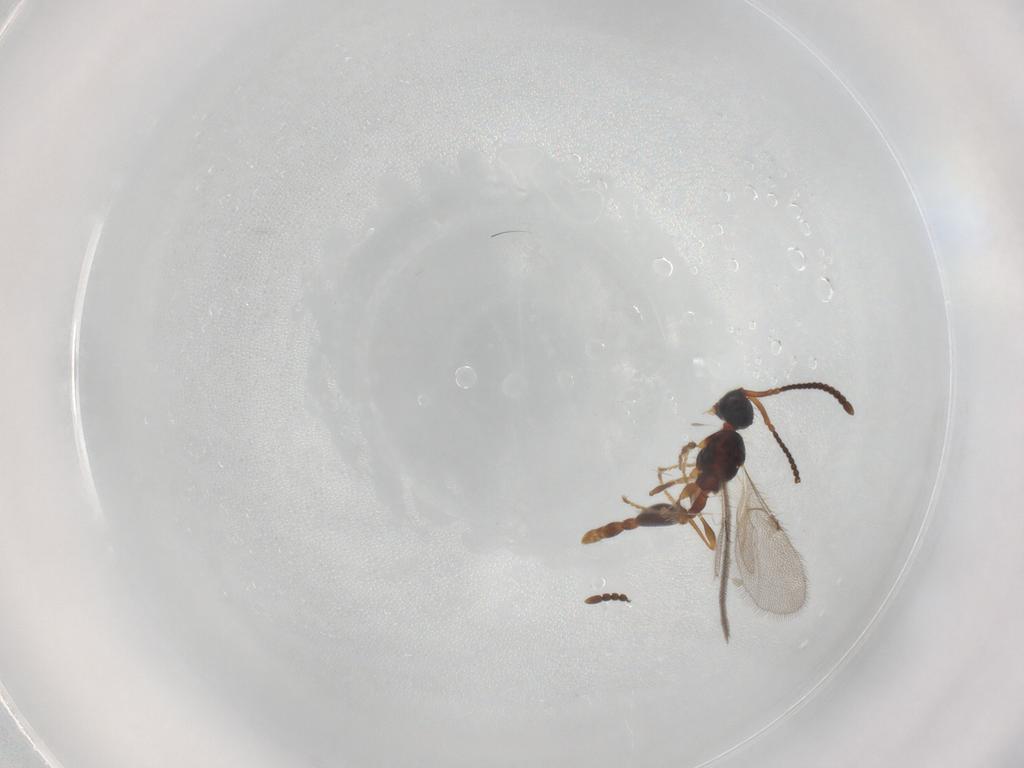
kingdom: Animalia
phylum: Arthropoda
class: Insecta
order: Hymenoptera
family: Diapriidae
